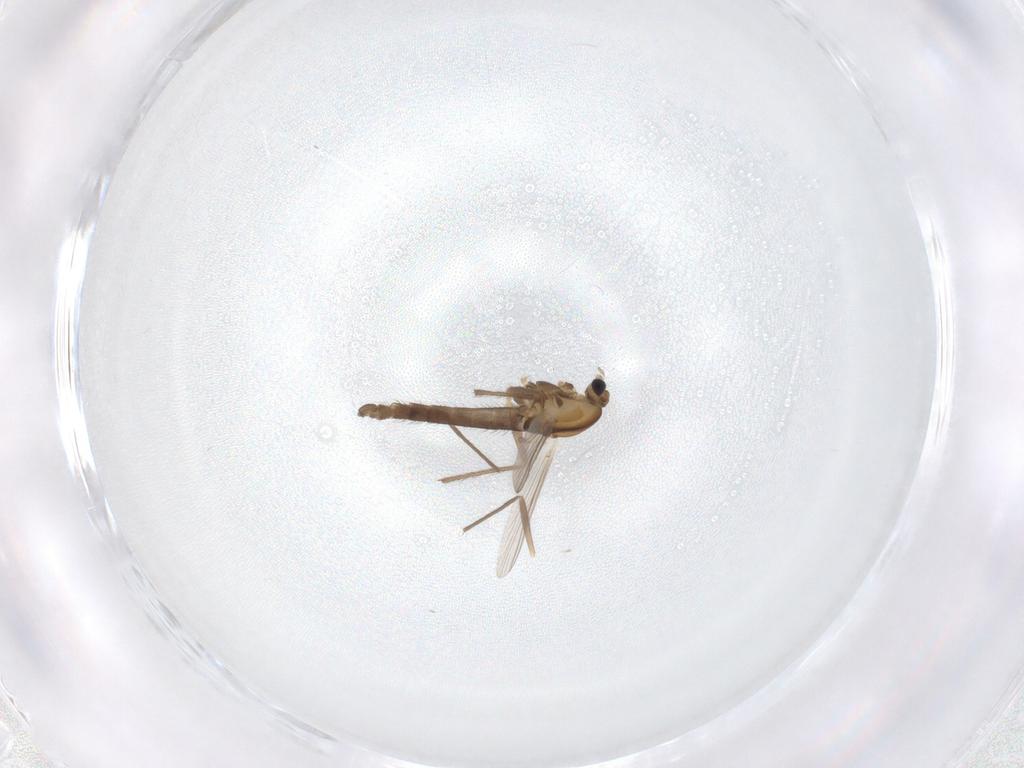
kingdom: Animalia
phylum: Arthropoda
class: Insecta
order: Diptera
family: Chironomidae
